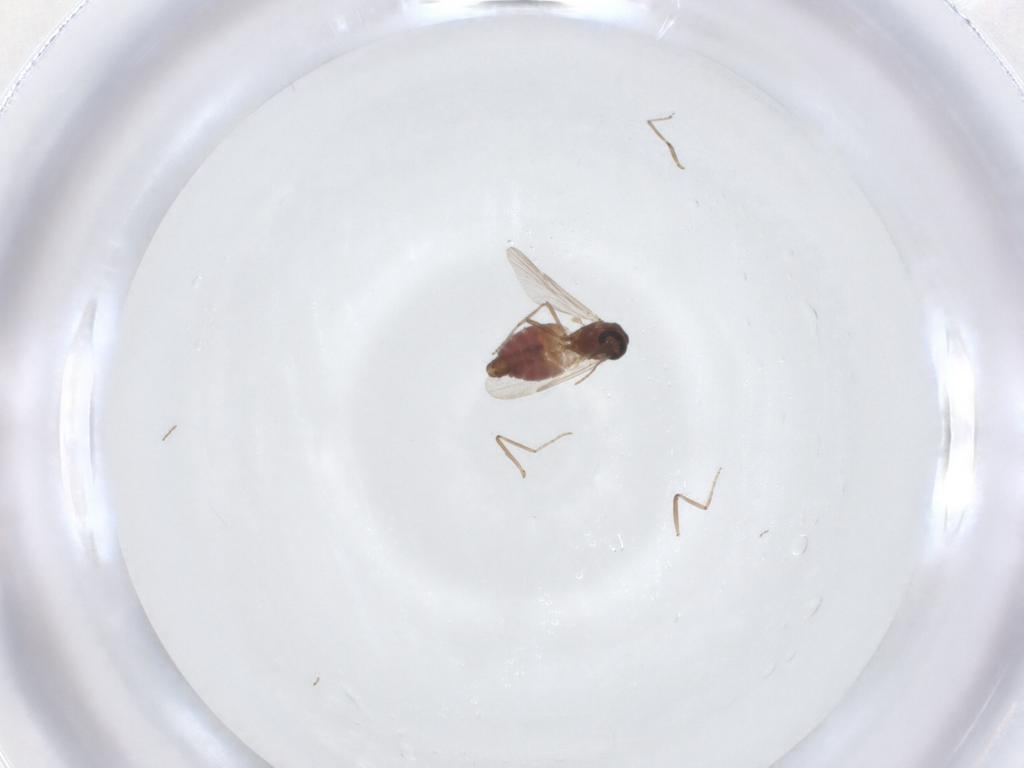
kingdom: Animalia
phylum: Arthropoda
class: Insecta
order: Diptera
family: Ceratopogonidae
